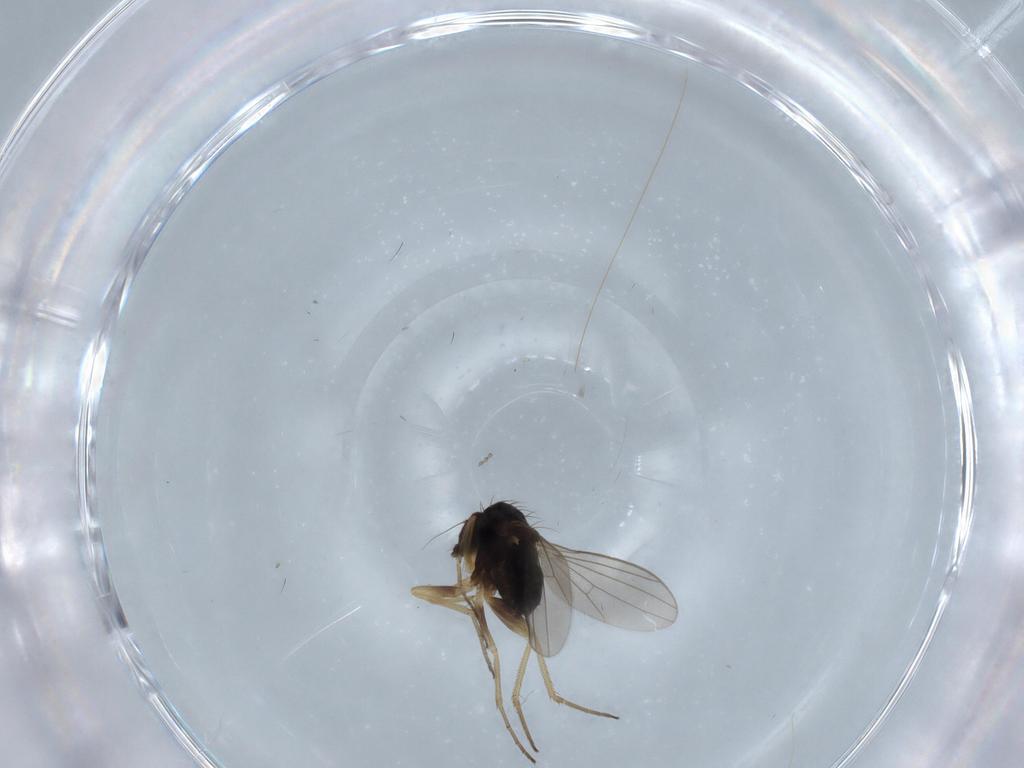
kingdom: Animalia
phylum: Arthropoda
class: Insecta
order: Diptera
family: Dolichopodidae
